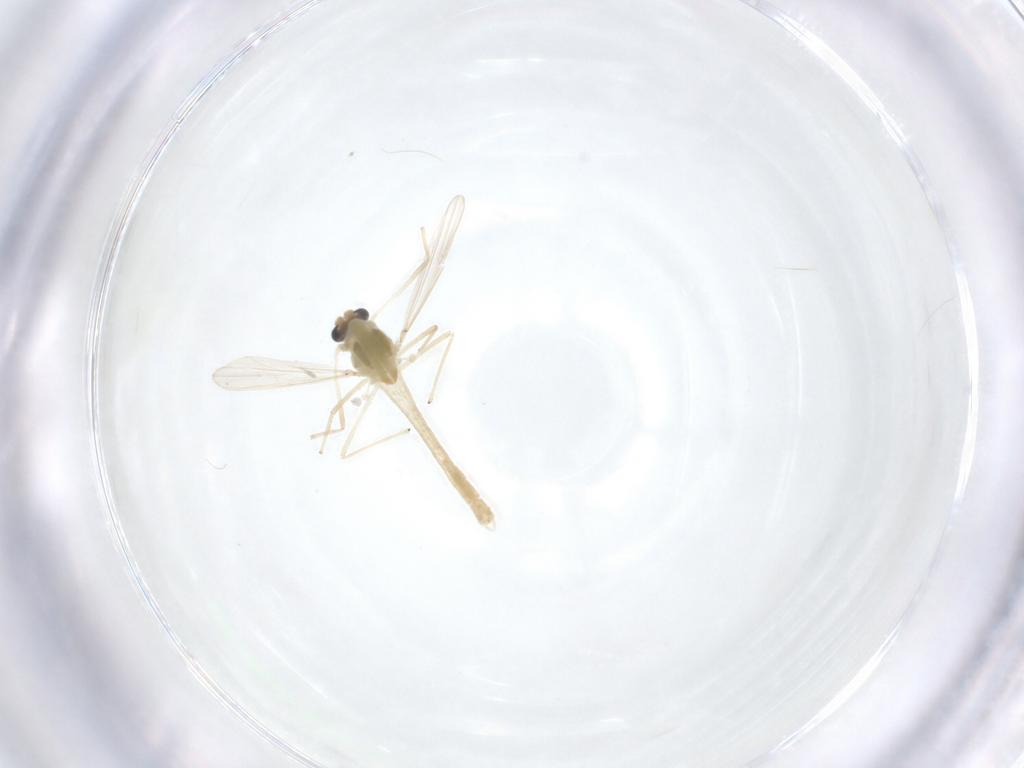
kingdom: Animalia
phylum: Arthropoda
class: Insecta
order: Diptera
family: Chironomidae
